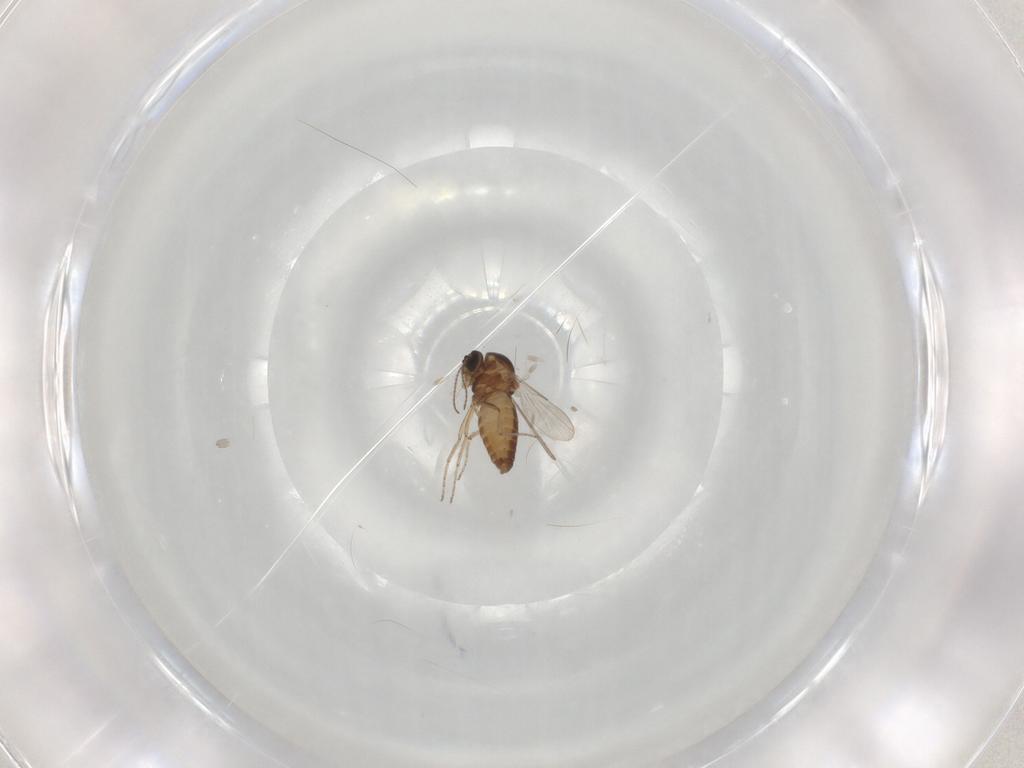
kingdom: Animalia
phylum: Arthropoda
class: Insecta
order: Diptera
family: Ceratopogonidae
